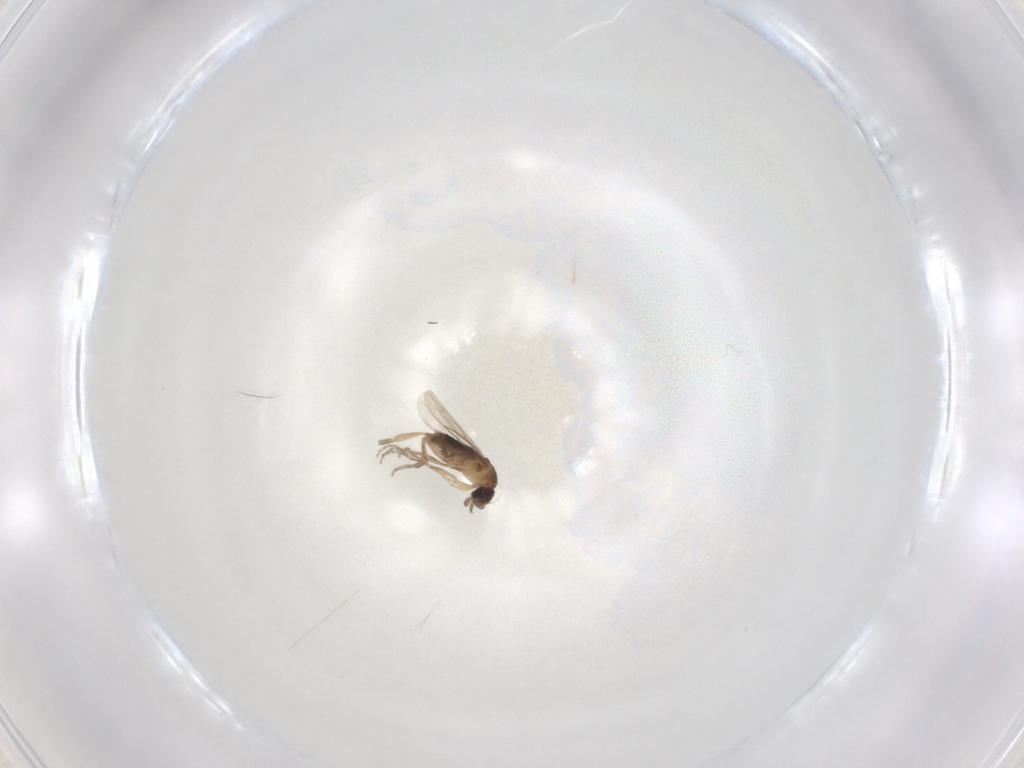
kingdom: Animalia
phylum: Arthropoda
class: Insecta
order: Diptera
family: Phoridae
